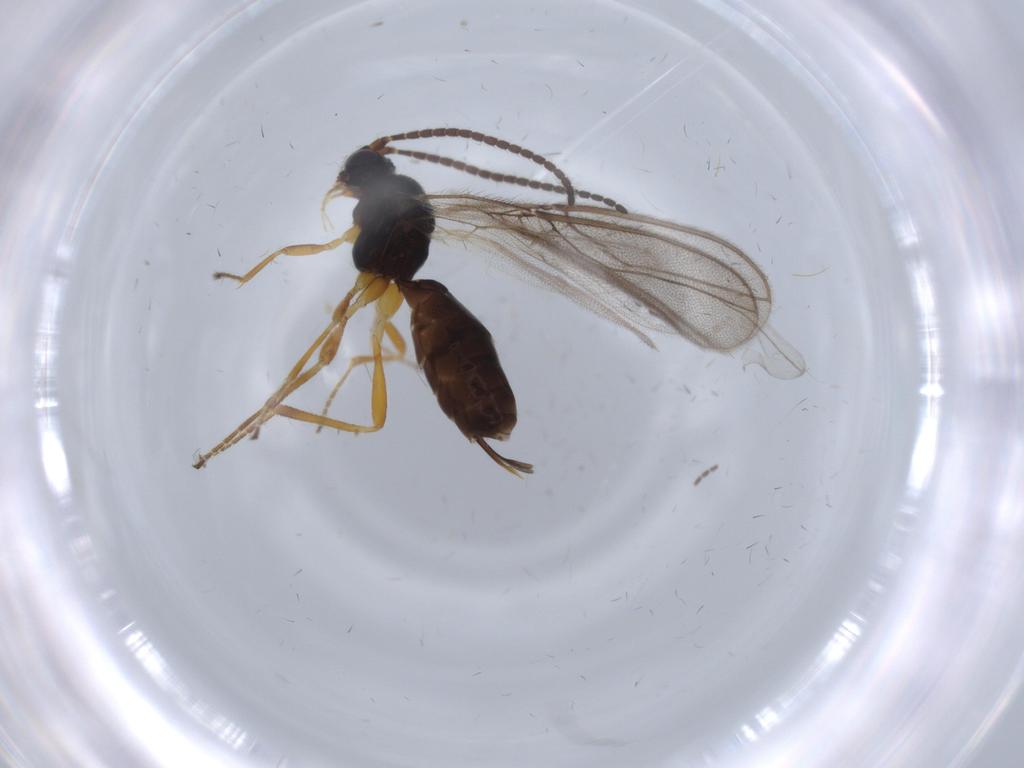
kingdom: Animalia
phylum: Arthropoda
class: Insecta
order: Hymenoptera
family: Braconidae
